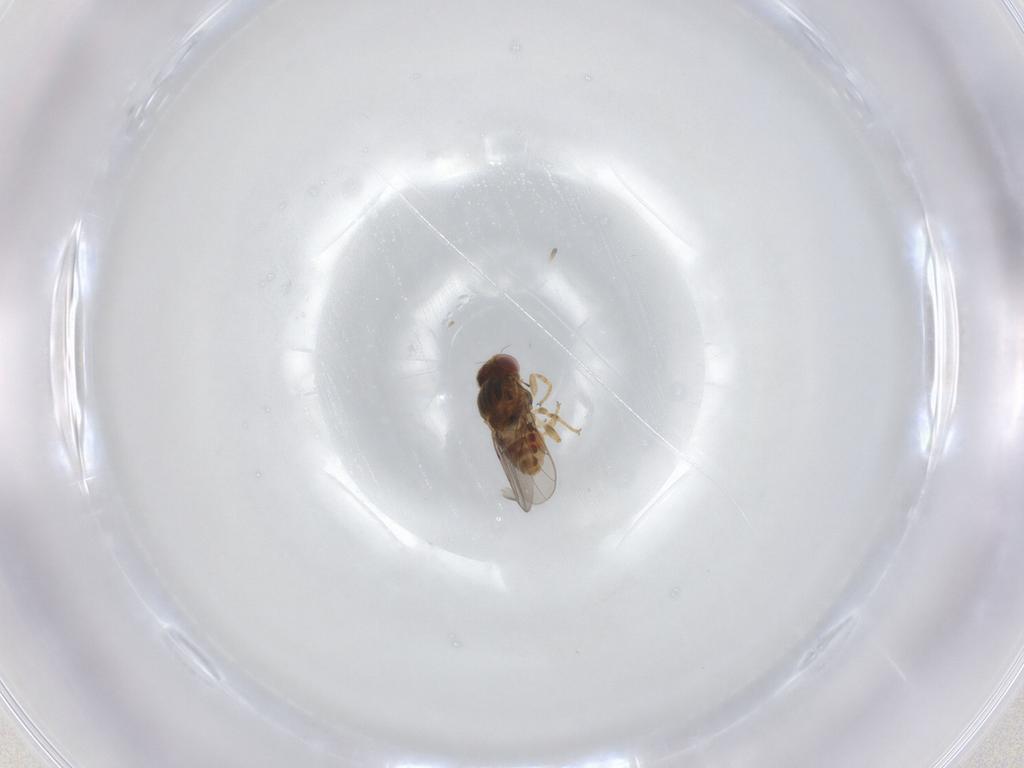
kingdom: Animalia
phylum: Arthropoda
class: Insecta
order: Diptera
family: Chloropidae
